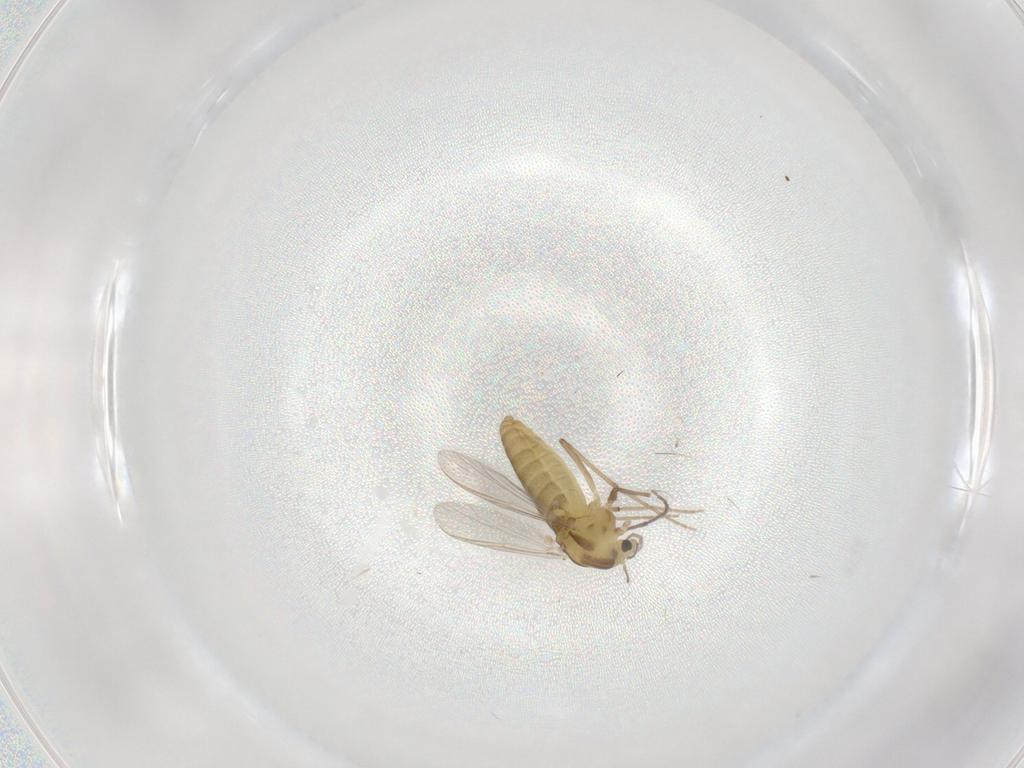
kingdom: Animalia
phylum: Arthropoda
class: Insecta
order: Diptera
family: Chironomidae
